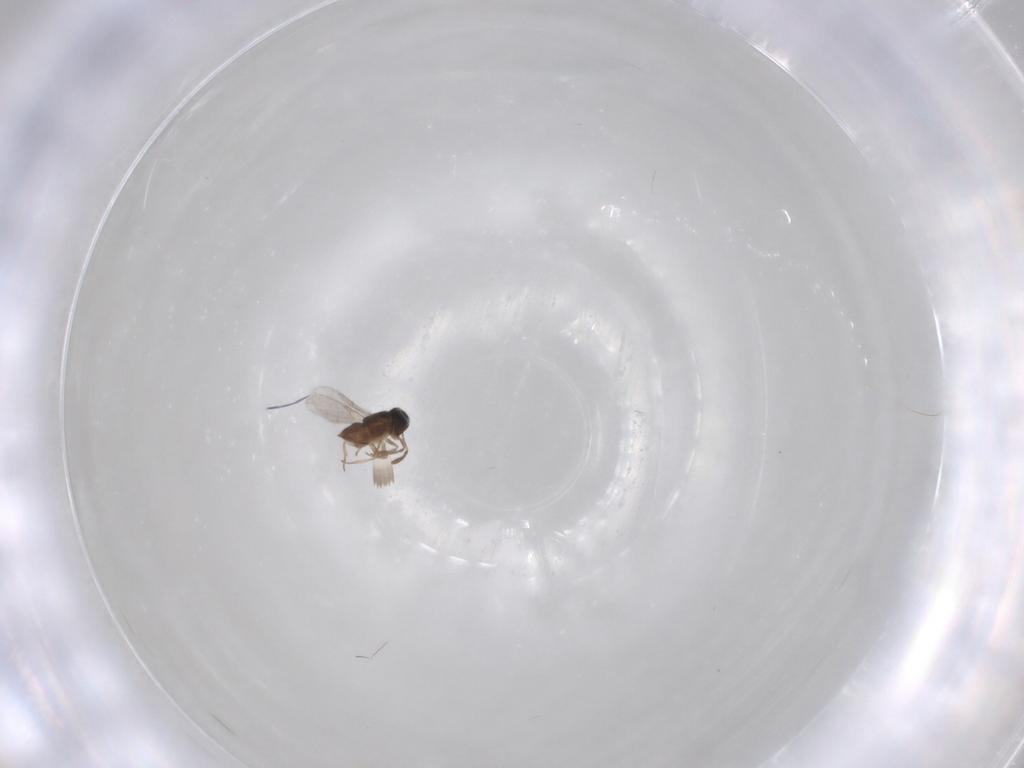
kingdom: Animalia
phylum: Arthropoda
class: Insecta
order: Hymenoptera
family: Encyrtidae
